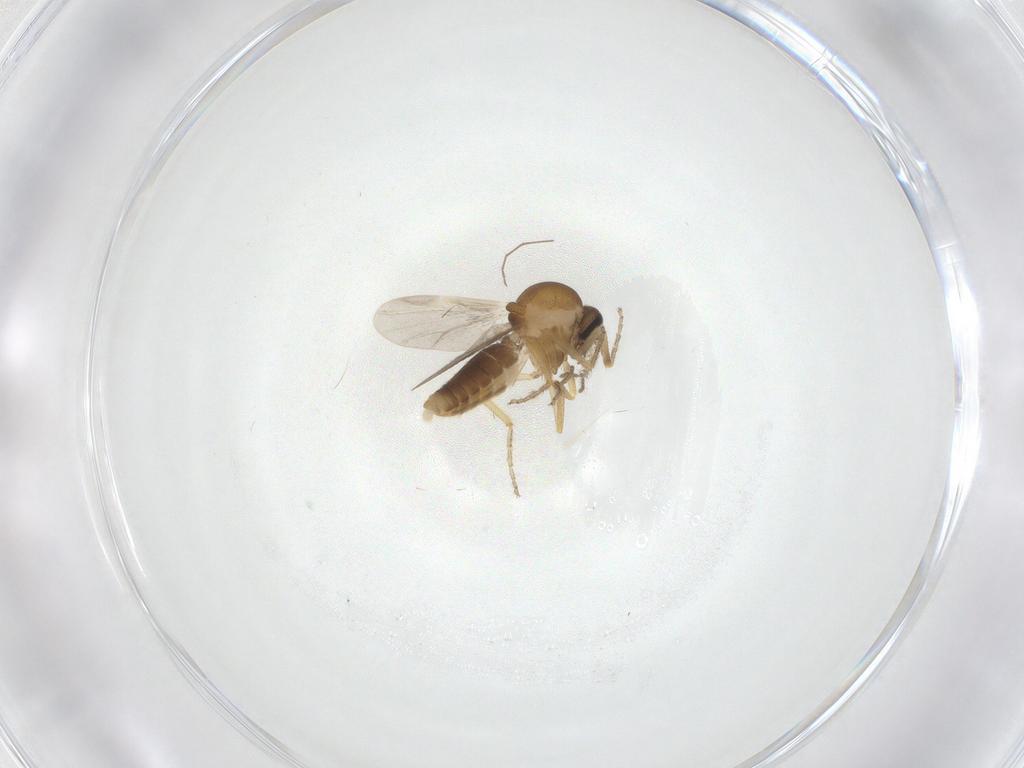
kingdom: Animalia
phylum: Arthropoda
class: Insecta
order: Diptera
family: Chironomidae
